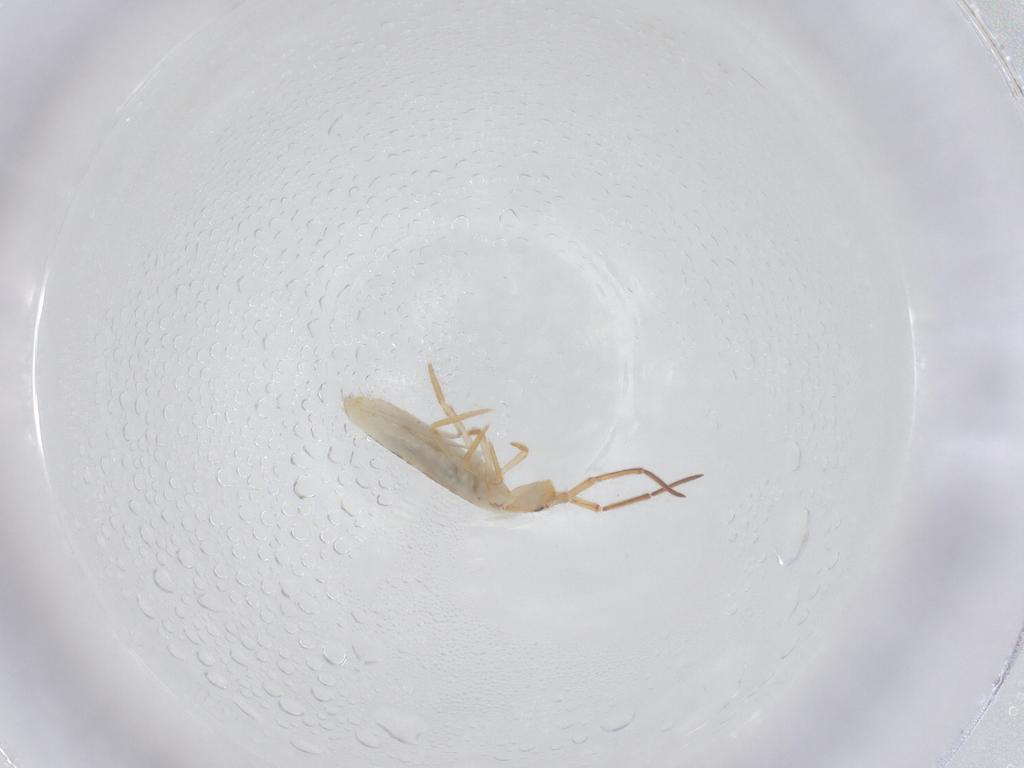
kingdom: Animalia
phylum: Arthropoda
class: Collembola
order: Entomobryomorpha
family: Entomobryidae
